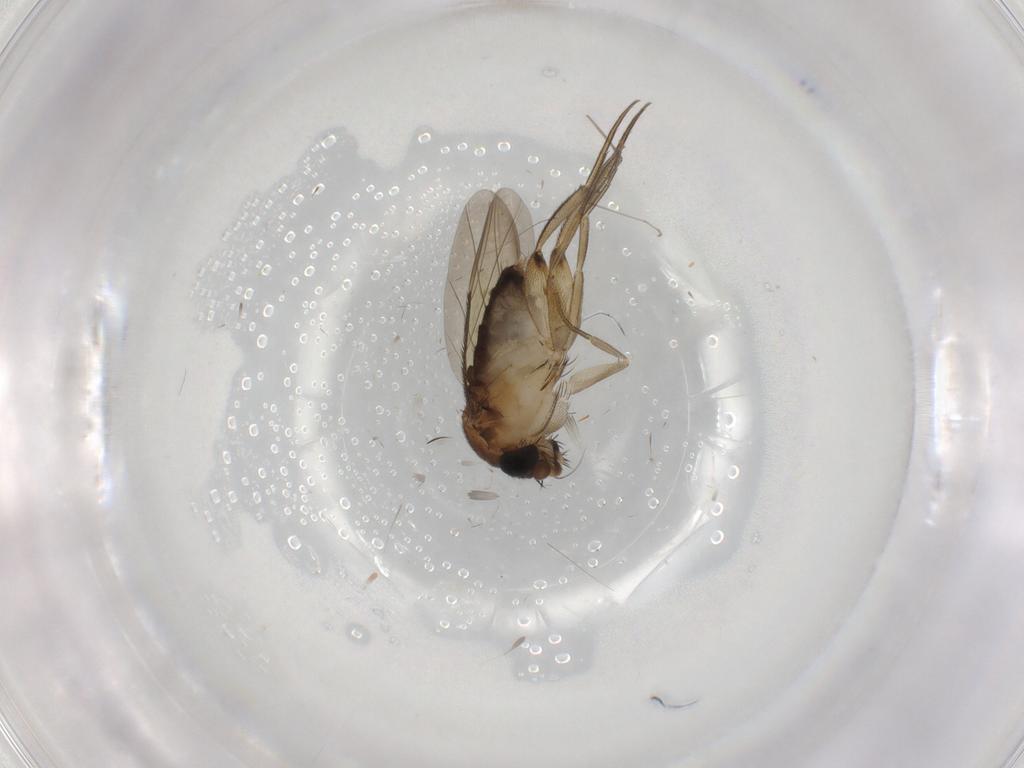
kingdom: Animalia
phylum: Arthropoda
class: Insecta
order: Diptera
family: Phoridae
